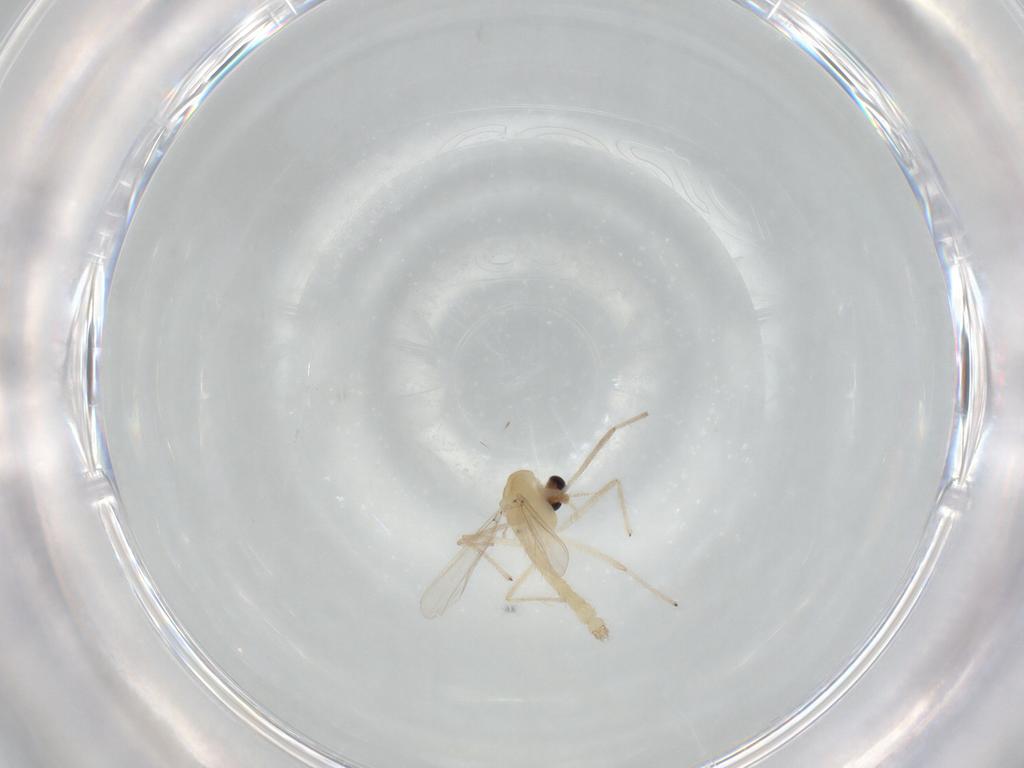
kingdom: Animalia
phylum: Arthropoda
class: Insecta
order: Diptera
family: Chironomidae
